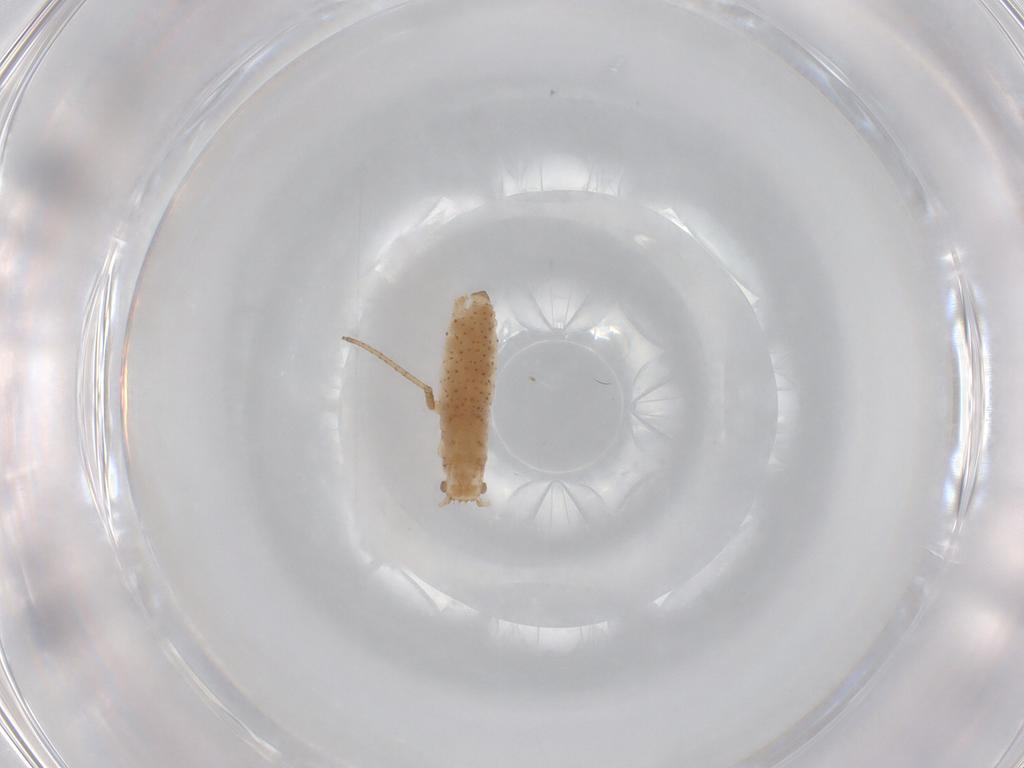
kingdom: Animalia
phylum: Arthropoda
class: Insecta
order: Hemiptera
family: Aphididae
